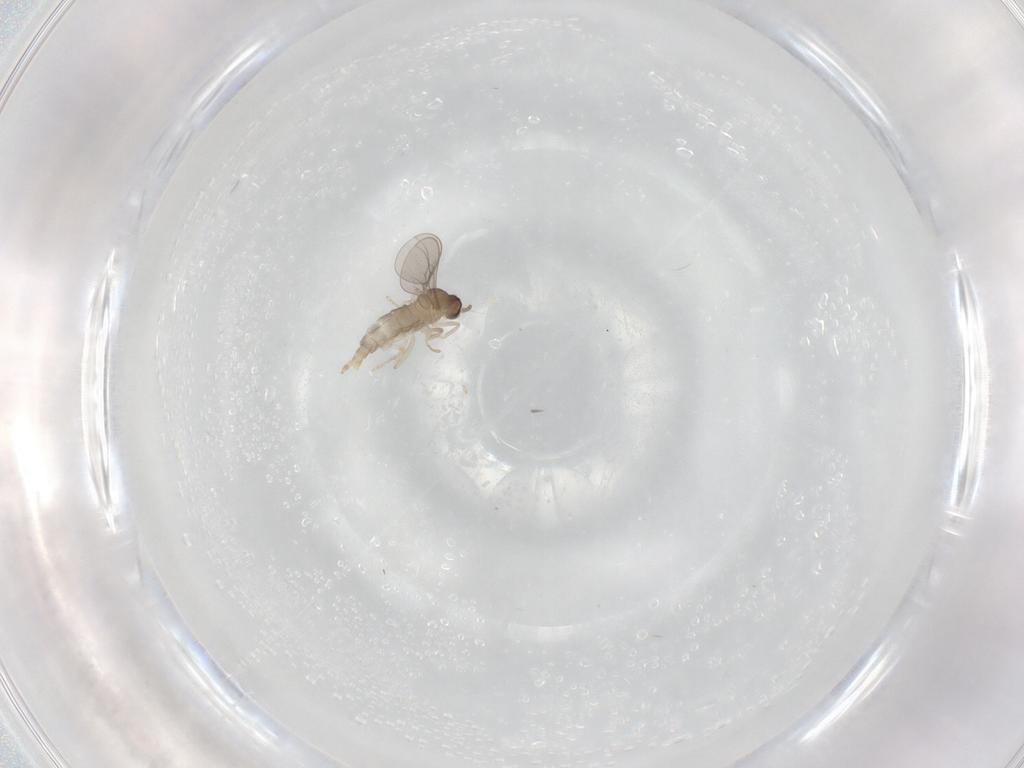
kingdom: Animalia
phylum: Arthropoda
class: Insecta
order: Diptera
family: Cecidomyiidae
